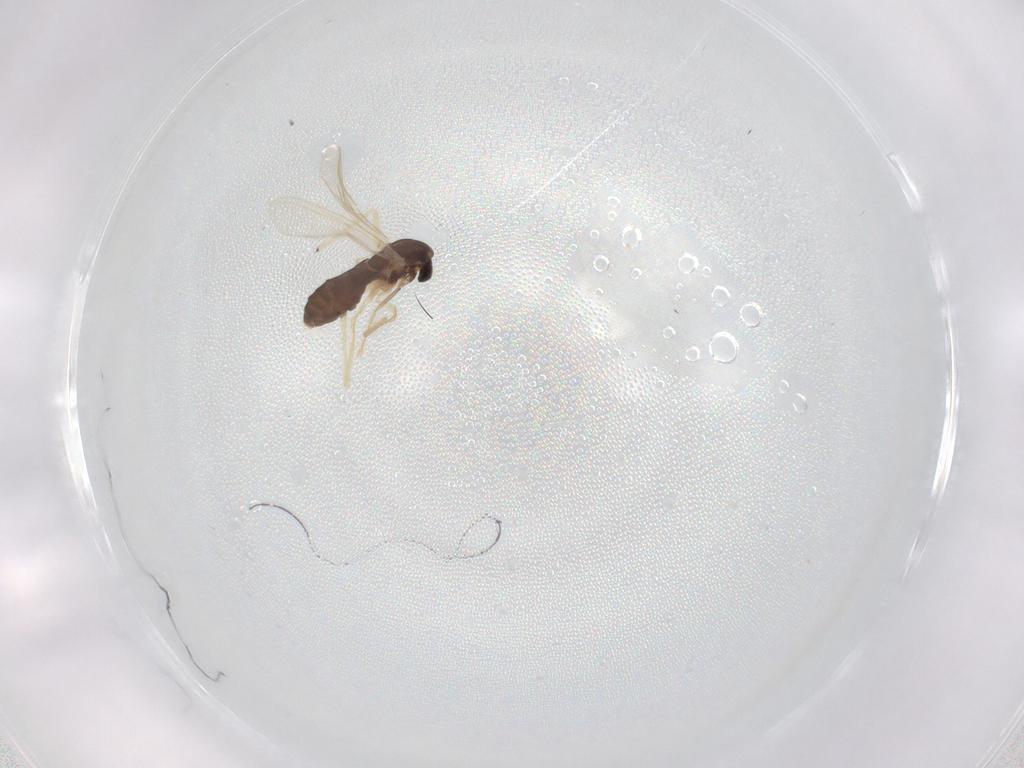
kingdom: Animalia
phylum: Arthropoda
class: Insecta
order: Diptera
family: Chironomidae
